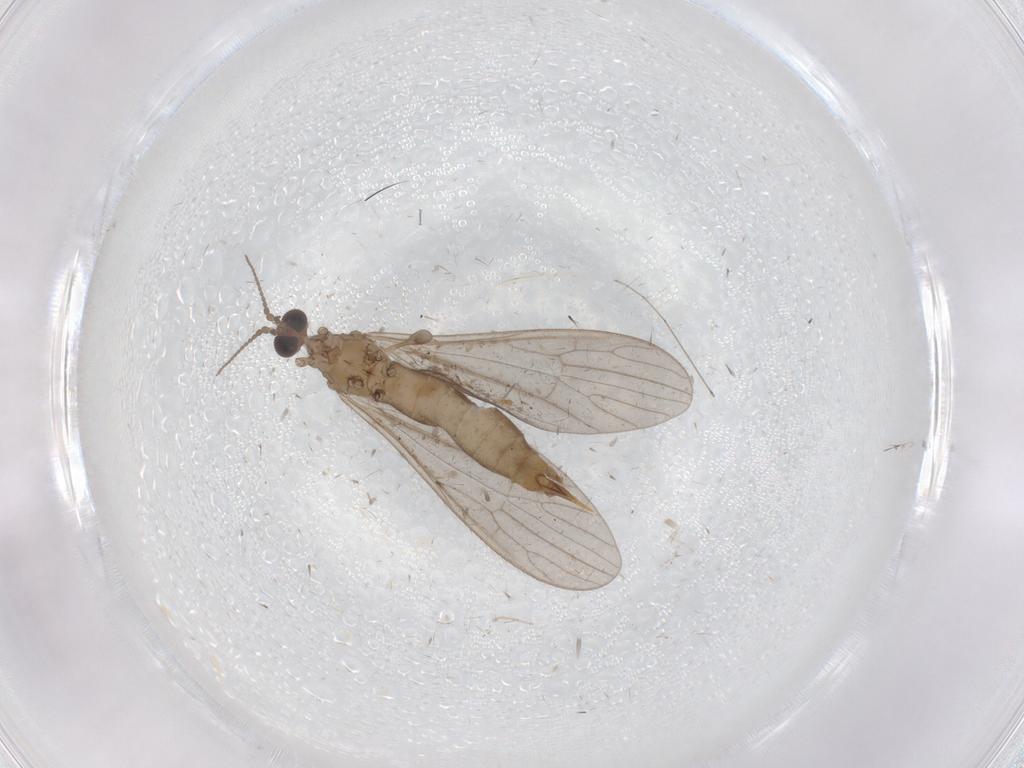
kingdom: Animalia
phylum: Arthropoda
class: Insecta
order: Diptera
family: Limoniidae
